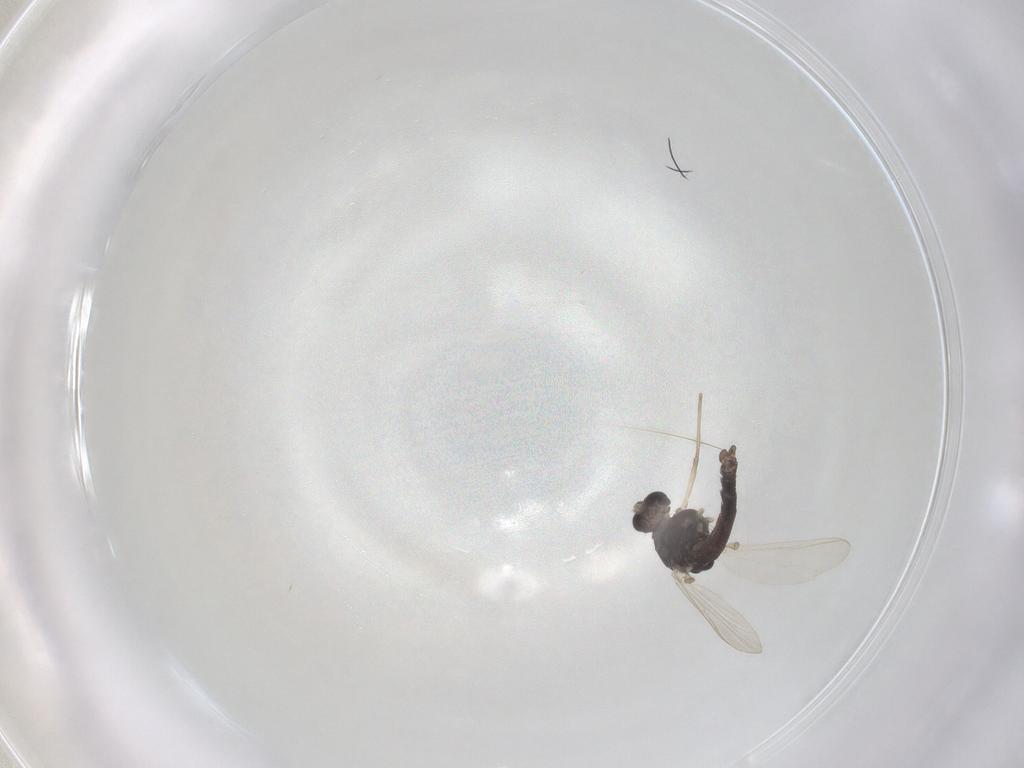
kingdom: Animalia
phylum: Arthropoda
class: Insecta
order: Diptera
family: Chironomidae
